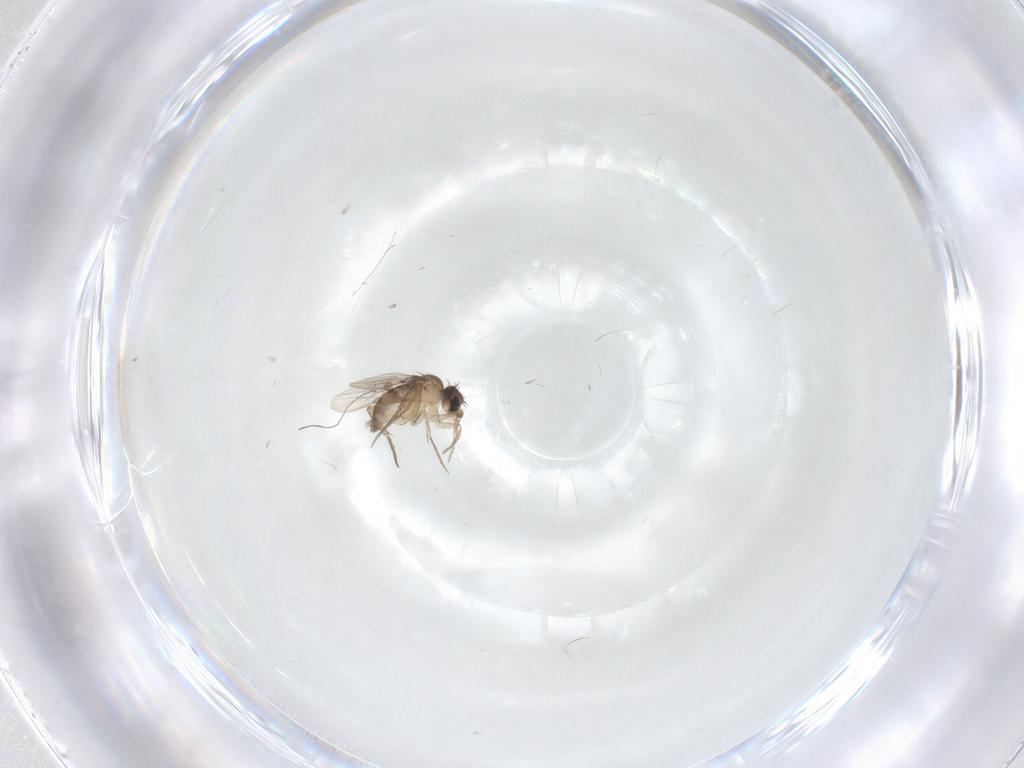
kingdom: Animalia
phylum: Arthropoda
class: Insecta
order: Diptera
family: Phoridae
